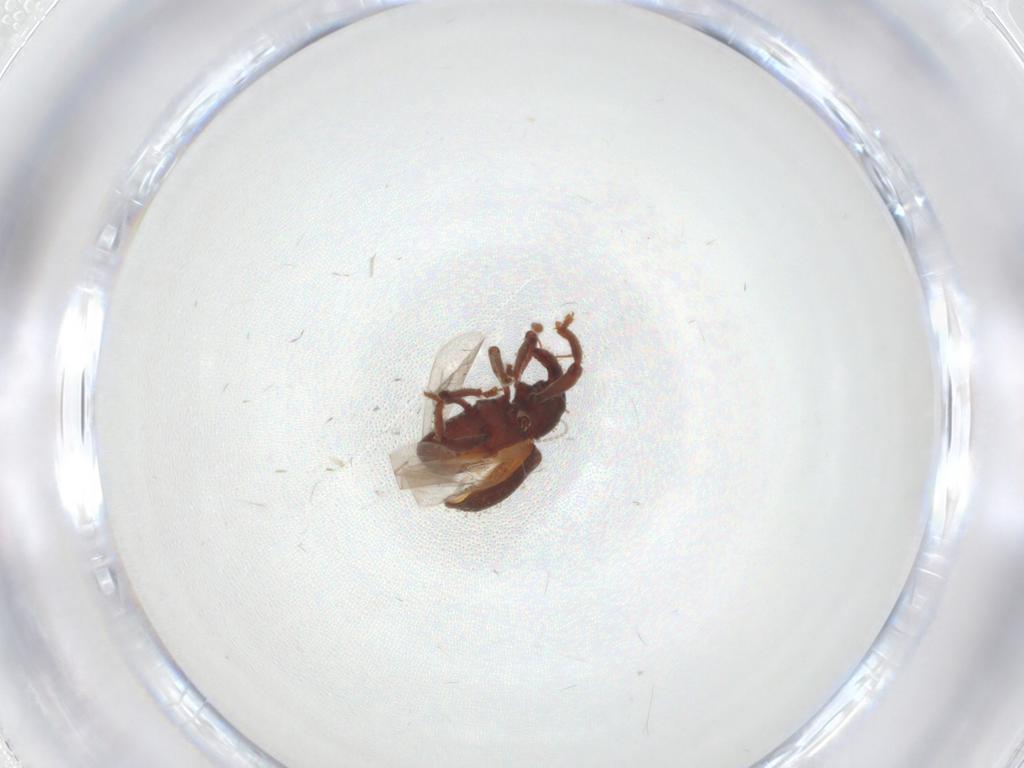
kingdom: Animalia
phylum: Arthropoda
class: Insecta
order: Coleoptera
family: Curculionidae
